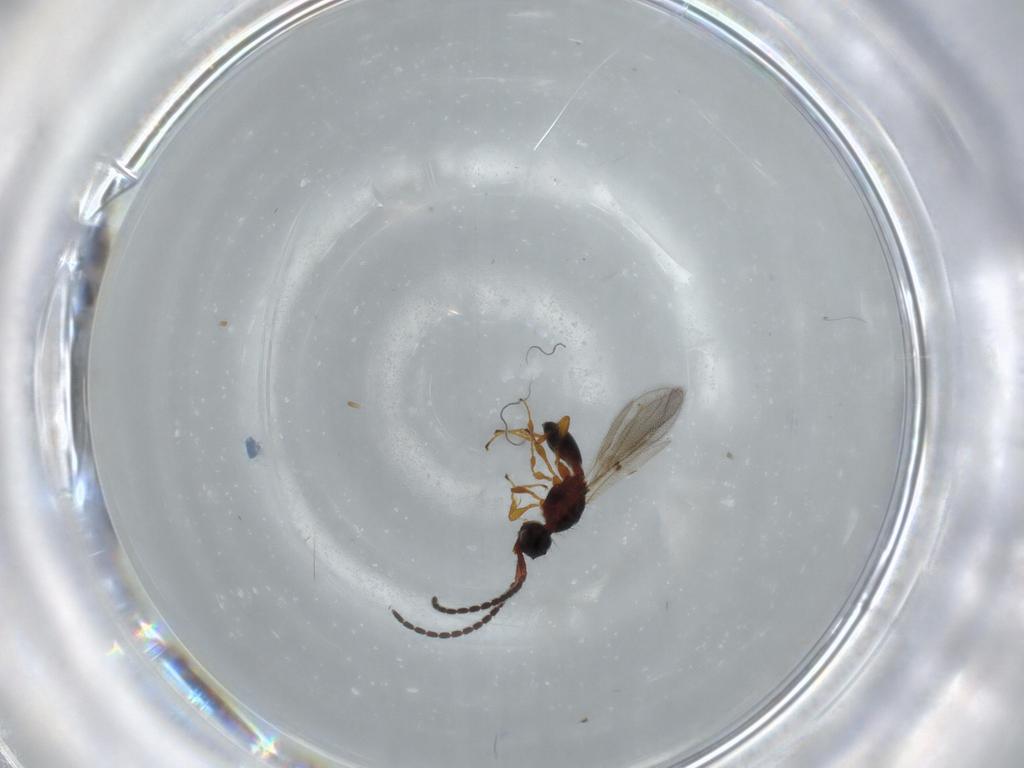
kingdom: Animalia
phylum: Arthropoda
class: Insecta
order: Hymenoptera
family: Diapriidae
